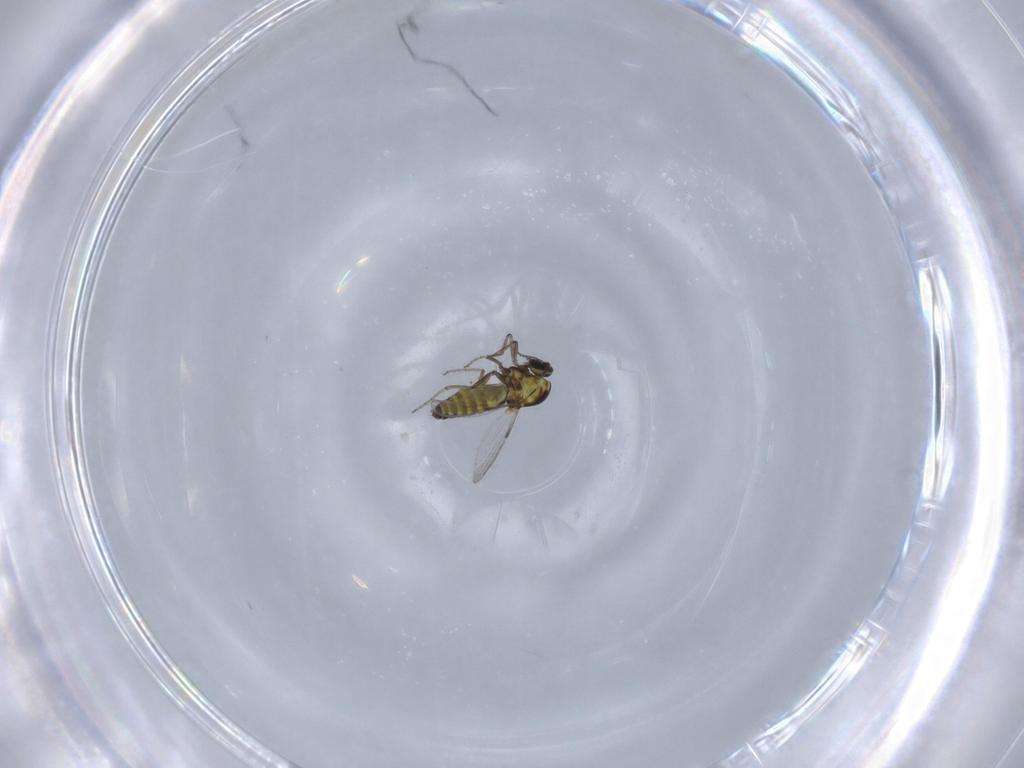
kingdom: Animalia
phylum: Arthropoda
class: Insecta
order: Diptera
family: Ceratopogonidae
